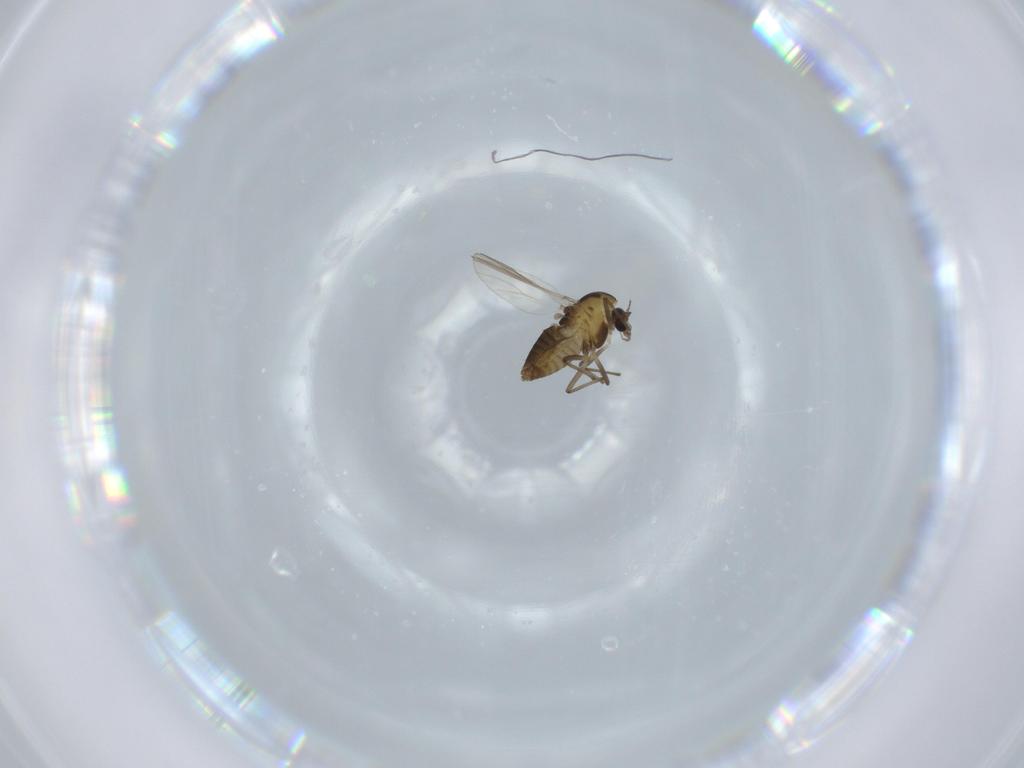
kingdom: Animalia
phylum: Arthropoda
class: Insecta
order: Diptera
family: Chironomidae
